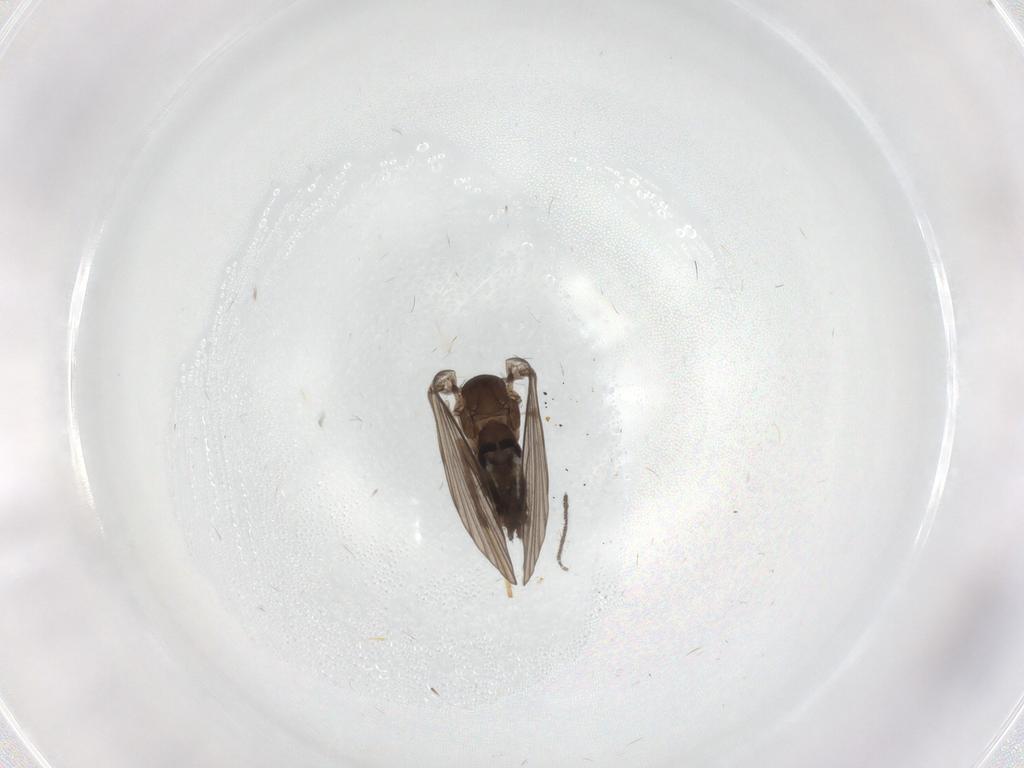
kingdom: Animalia
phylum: Arthropoda
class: Insecta
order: Diptera
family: Psychodidae
